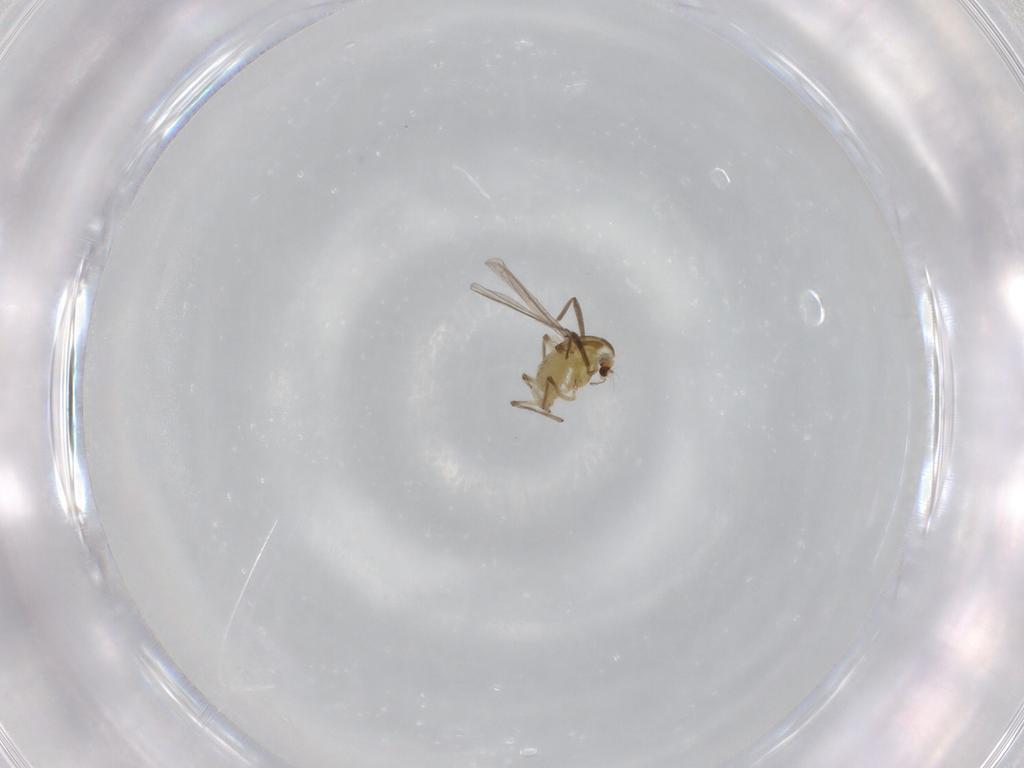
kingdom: Animalia
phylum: Arthropoda
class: Insecta
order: Diptera
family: Chironomidae
